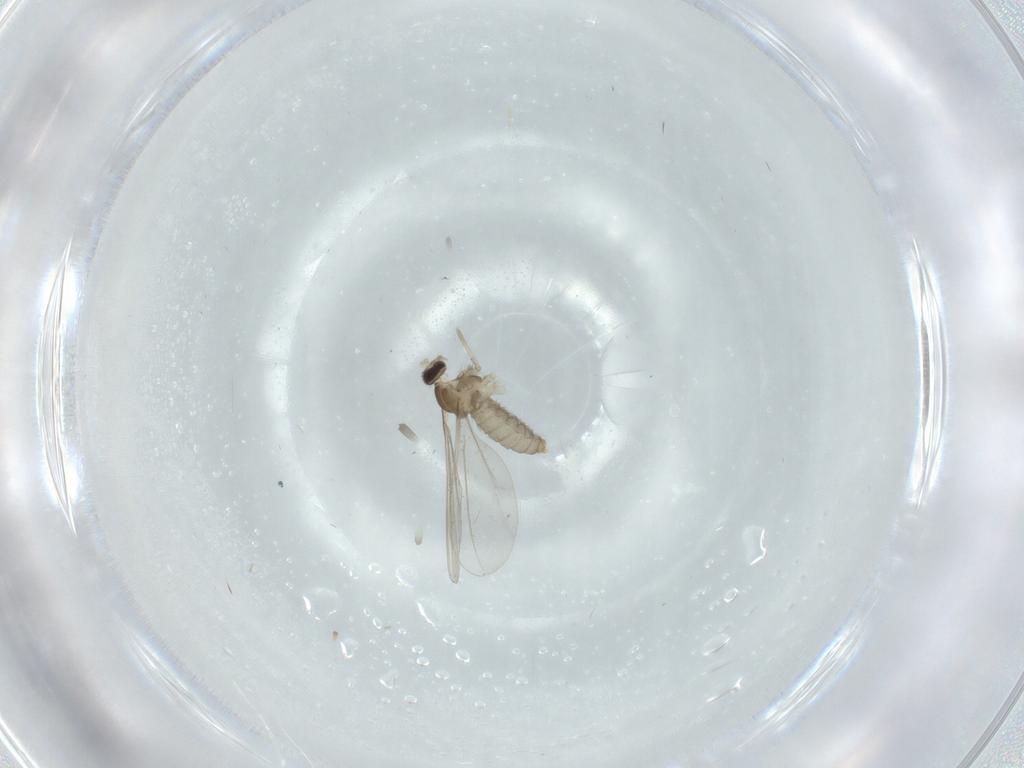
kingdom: Animalia
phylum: Arthropoda
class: Insecta
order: Diptera
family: Cecidomyiidae
